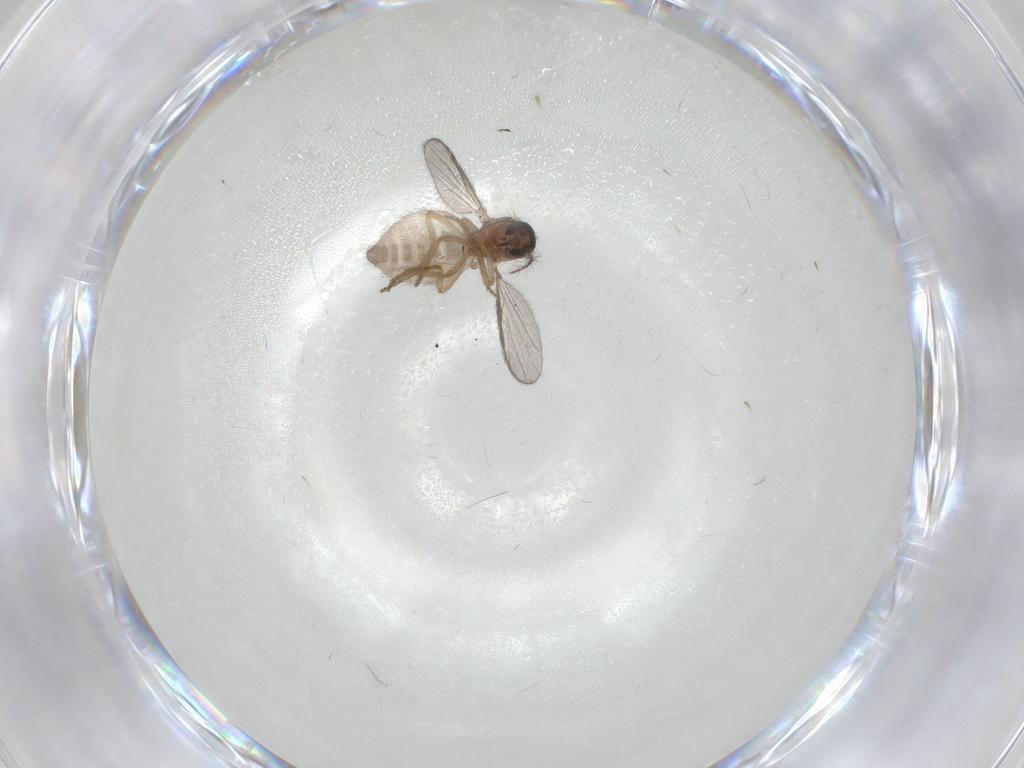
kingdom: Animalia
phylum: Arthropoda
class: Insecta
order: Diptera
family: Ceratopogonidae
